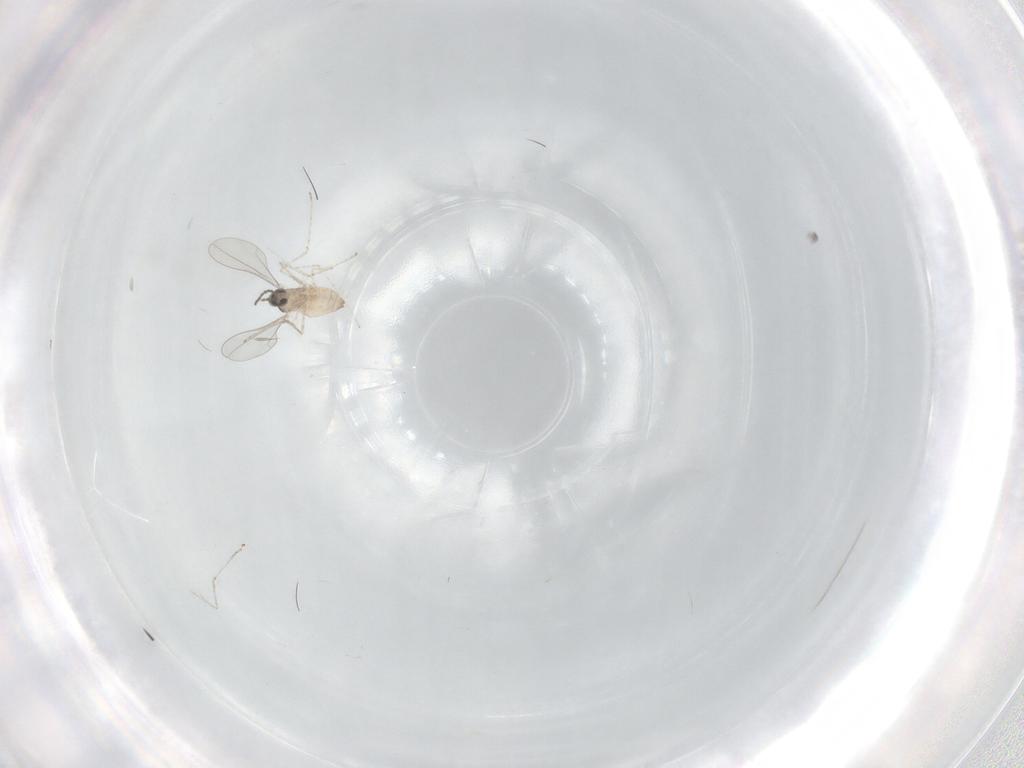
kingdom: Animalia
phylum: Arthropoda
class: Insecta
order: Diptera
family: Cecidomyiidae
